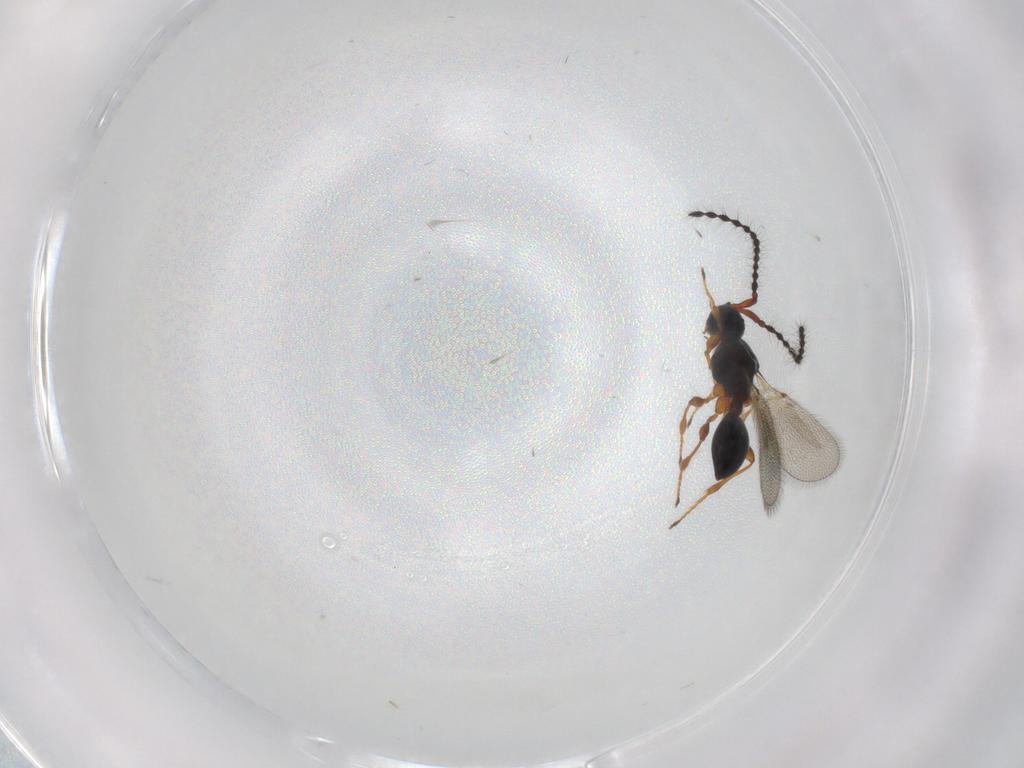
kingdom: Animalia
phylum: Arthropoda
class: Insecta
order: Hymenoptera
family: Diapriidae
